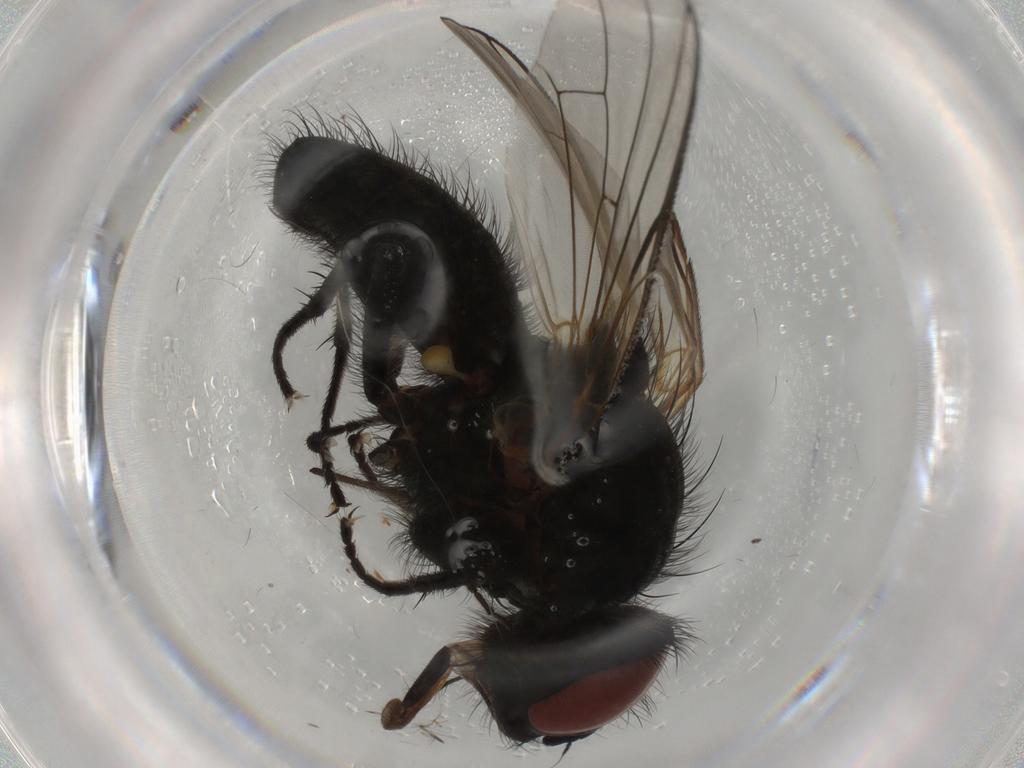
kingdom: Animalia
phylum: Arthropoda
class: Insecta
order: Diptera
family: Anthomyiidae
